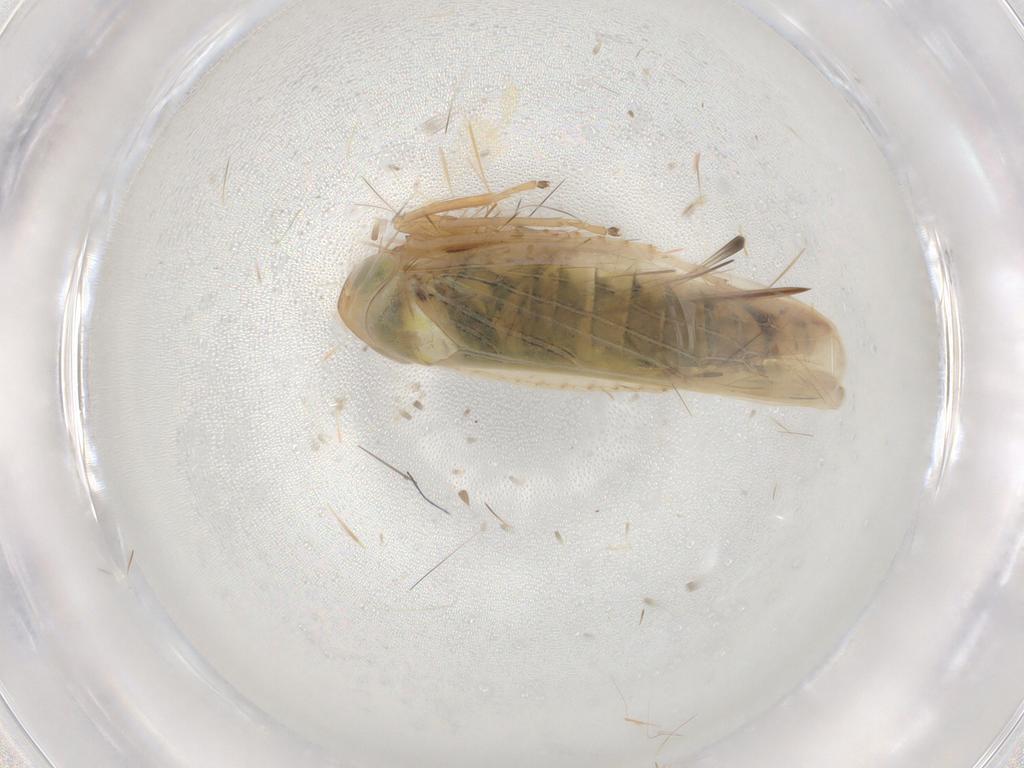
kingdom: Animalia
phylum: Arthropoda
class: Insecta
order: Hemiptera
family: Cicadellidae
